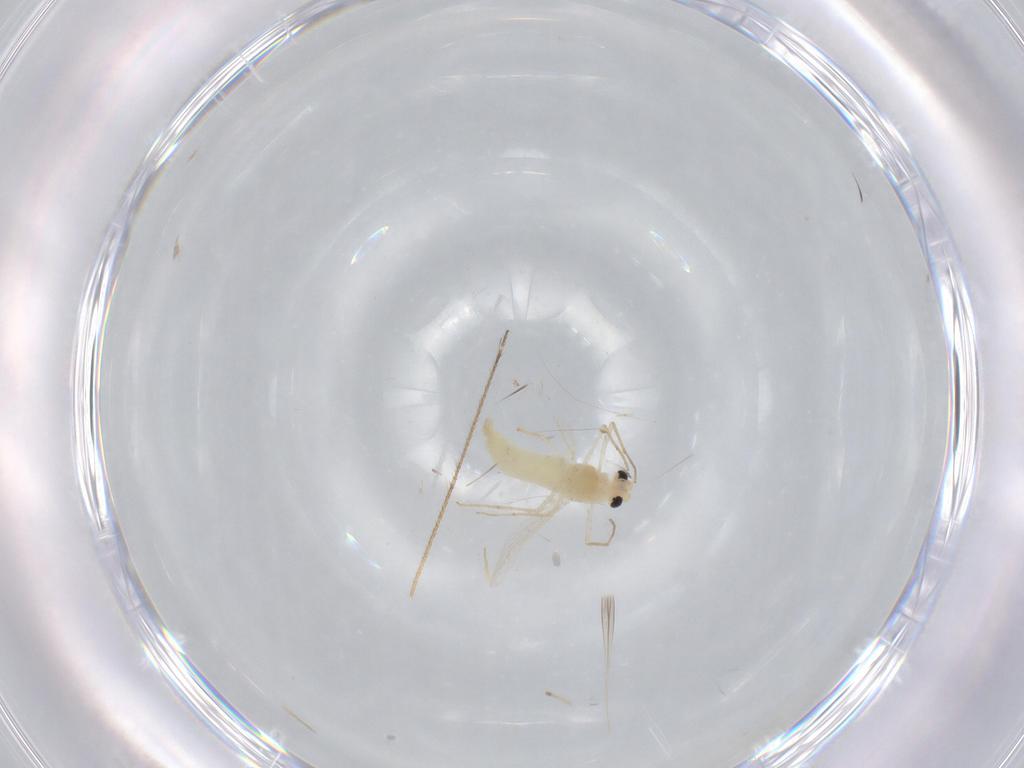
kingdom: Animalia
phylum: Arthropoda
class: Insecta
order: Diptera
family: Chironomidae
